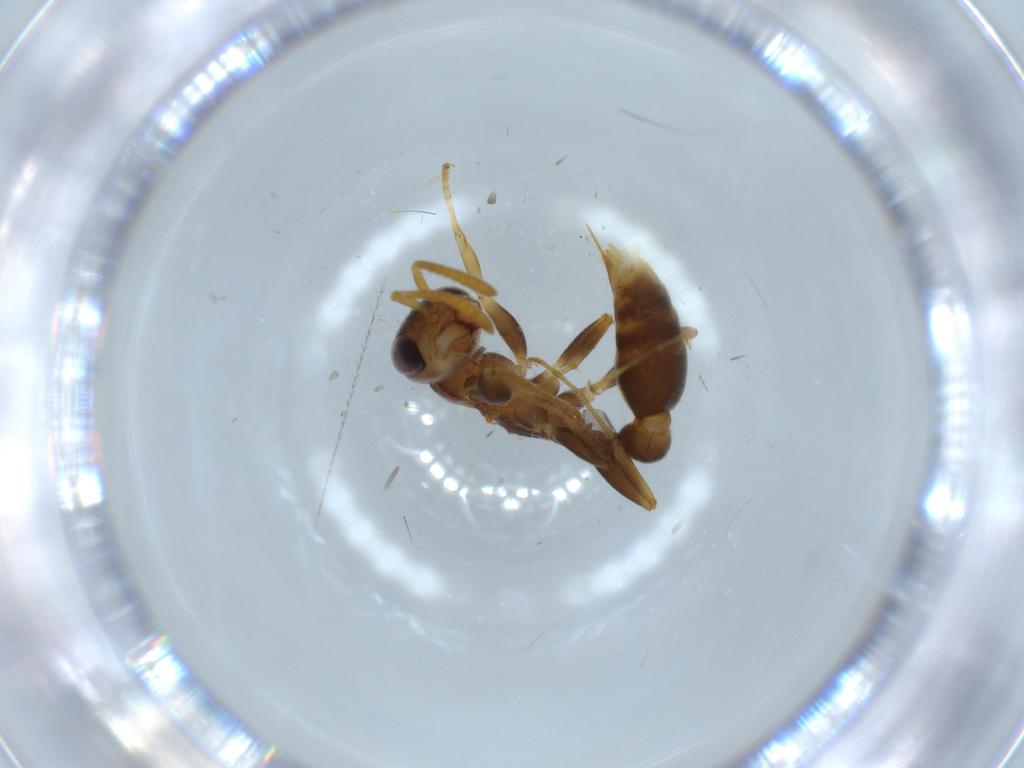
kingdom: Animalia
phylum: Arthropoda
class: Insecta
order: Hymenoptera
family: Formicidae
